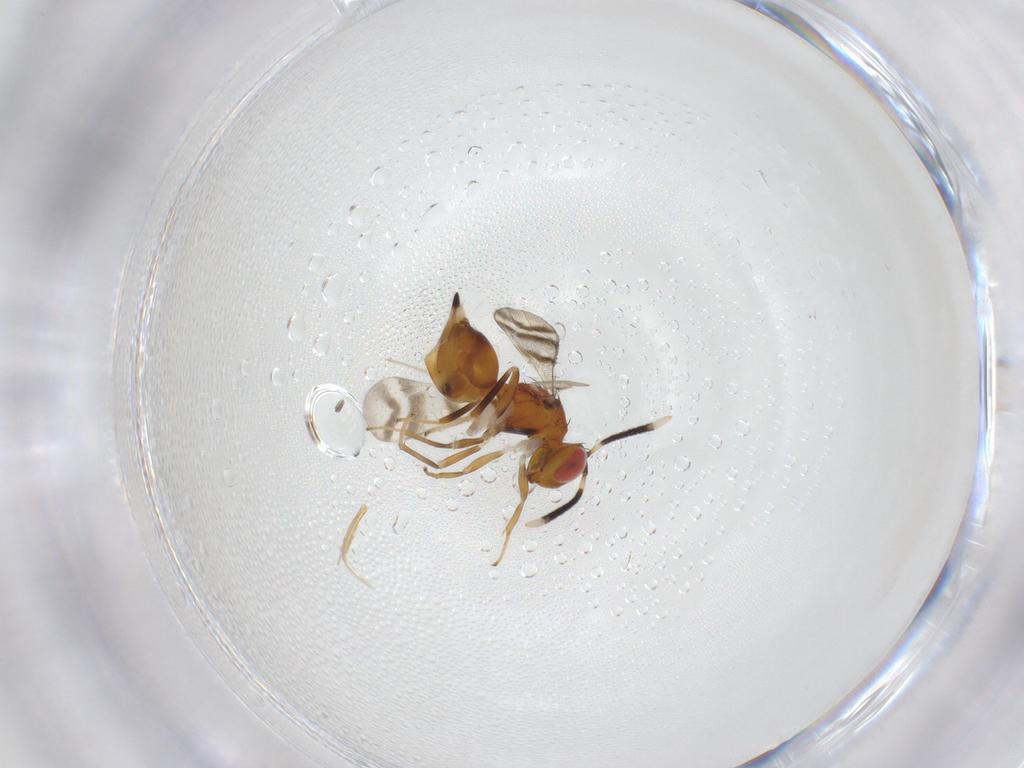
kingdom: Animalia
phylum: Arthropoda
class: Insecta
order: Hymenoptera
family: Diparidae
